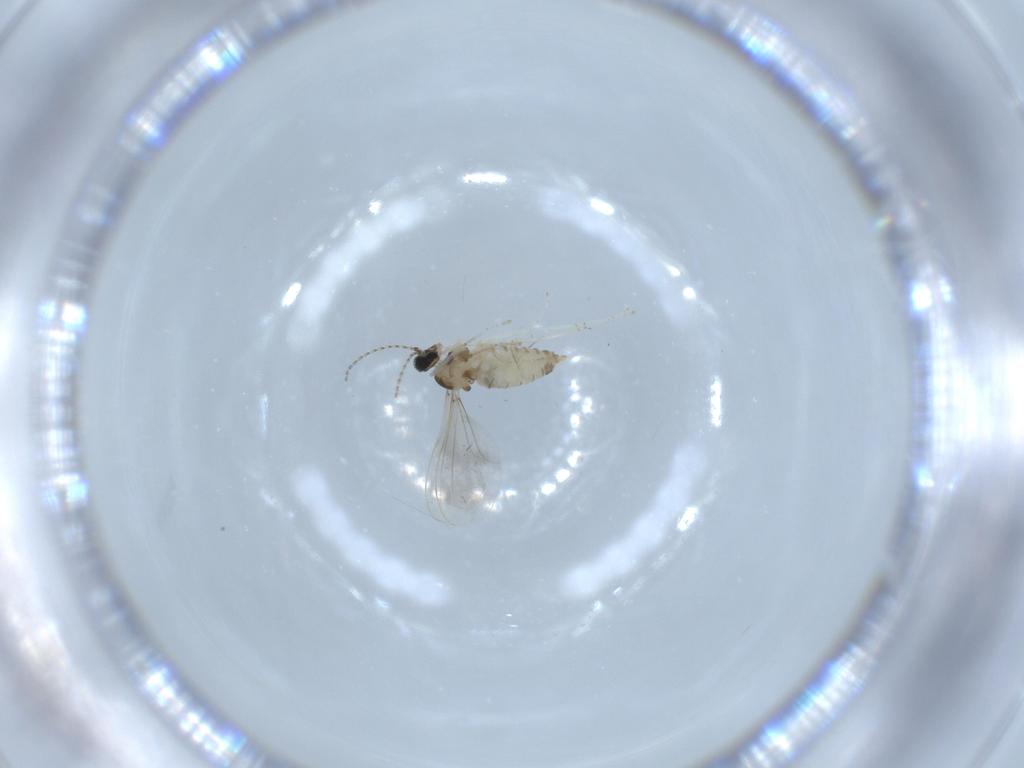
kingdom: Animalia
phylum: Arthropoda
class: Insecta
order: Diptera
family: Cecidomyiidae
